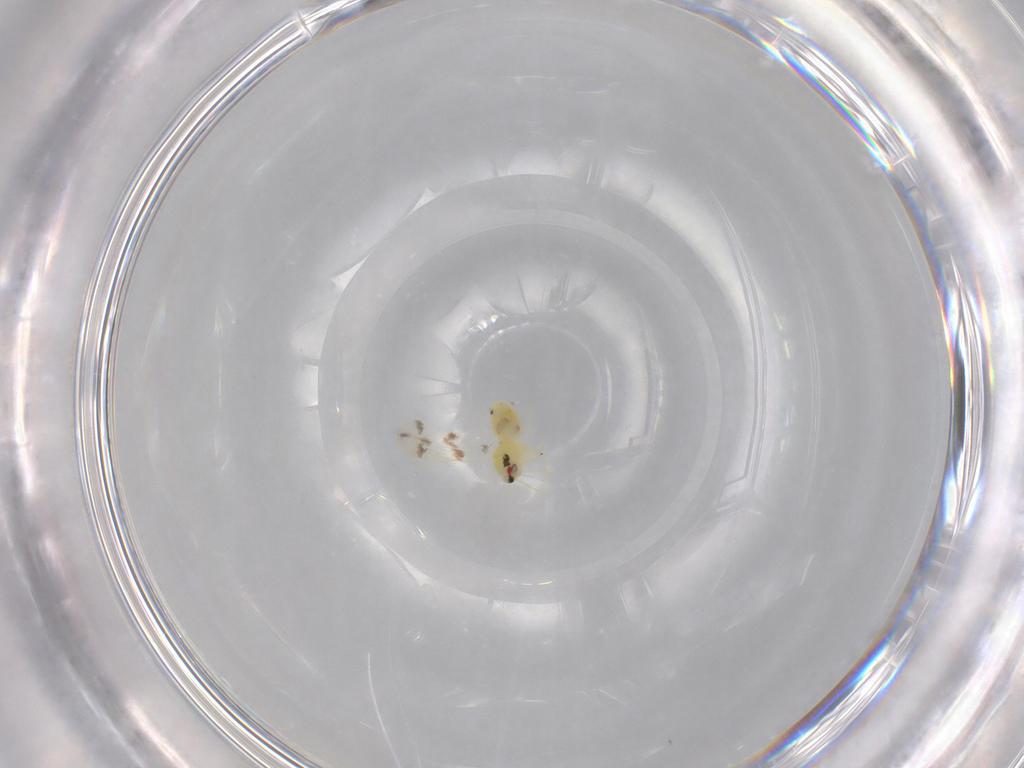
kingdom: Animalia
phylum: Arthropoda
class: Insecta
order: Hemiptera
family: Aleyrodidae
